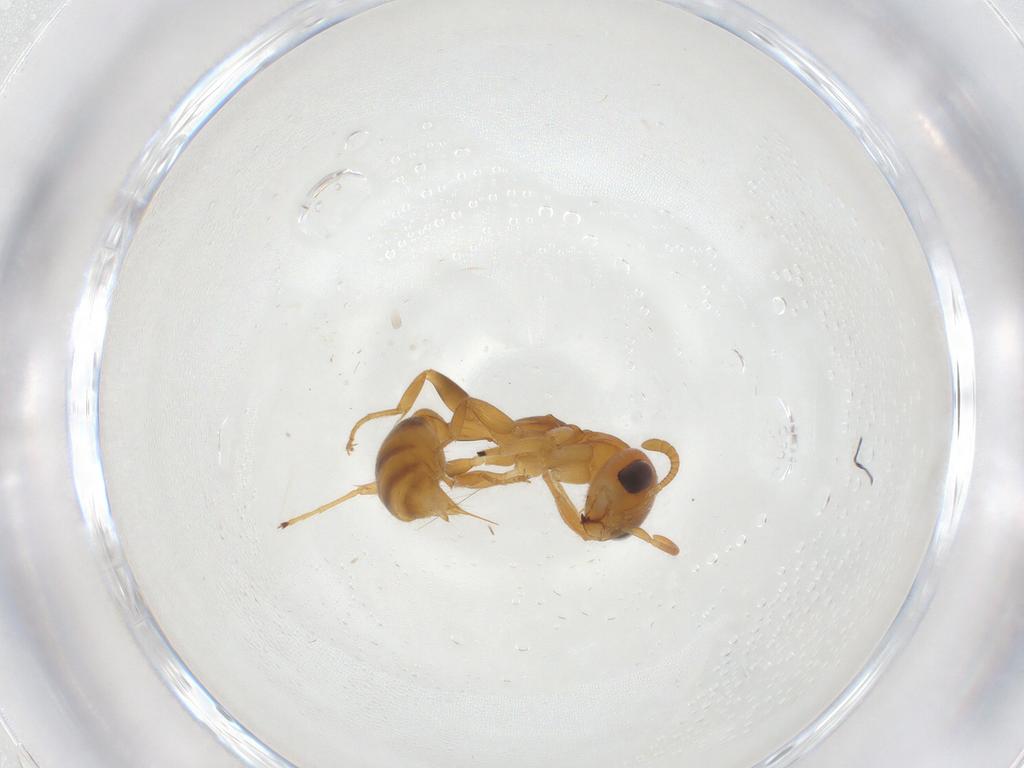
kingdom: Animalia
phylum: Arthropoda
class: Insecta
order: Hymenoptera
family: Formicidae
